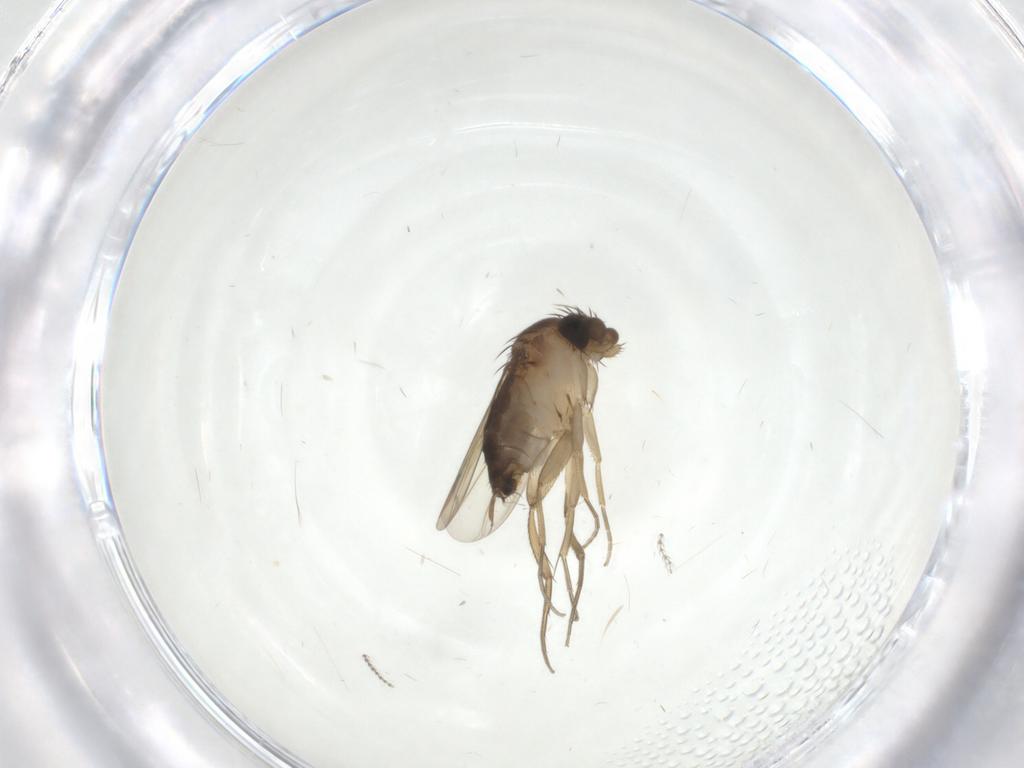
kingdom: Animalia
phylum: Arthropoda
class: Insecta
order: Diptera
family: Phoridae
